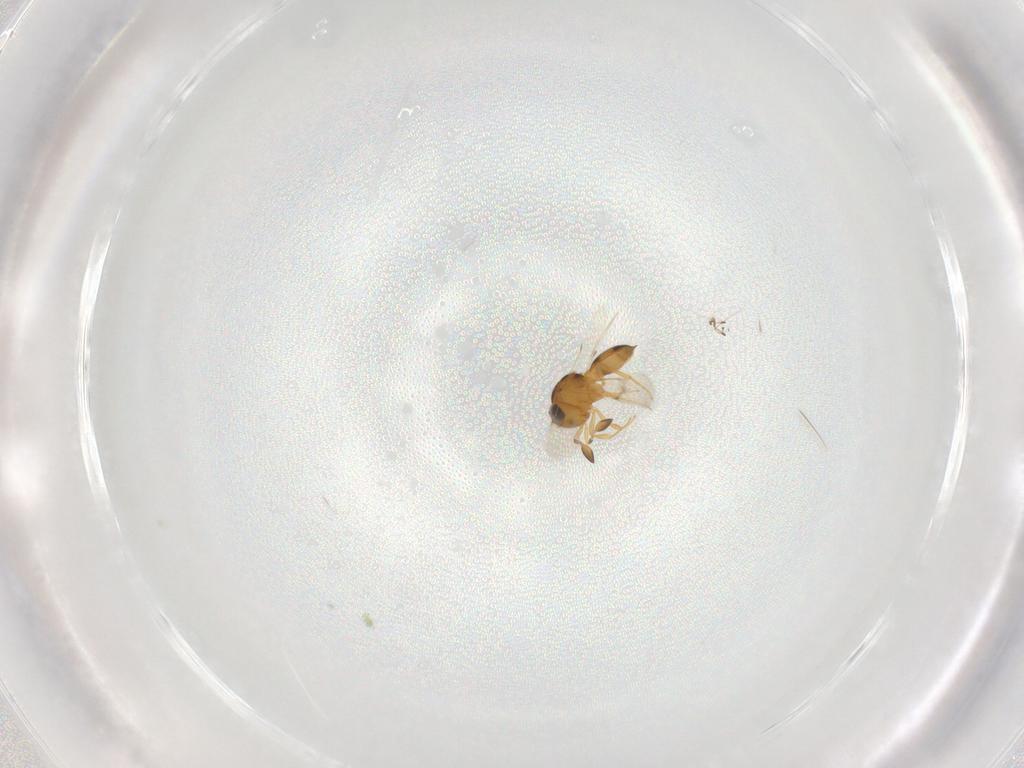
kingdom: Animalia
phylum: Arthropoda
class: Insecta
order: Hymenoptera
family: Scelionidae
